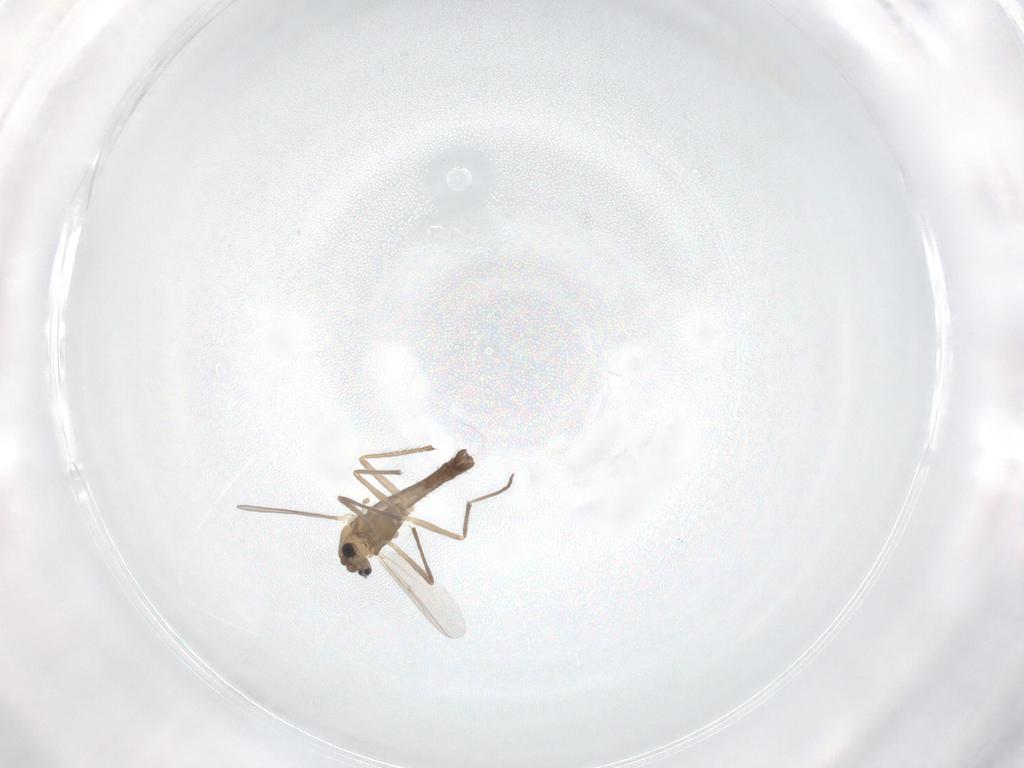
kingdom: Animalia
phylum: Arthropoda
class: Insecta
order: Diptera
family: Chironomidae
